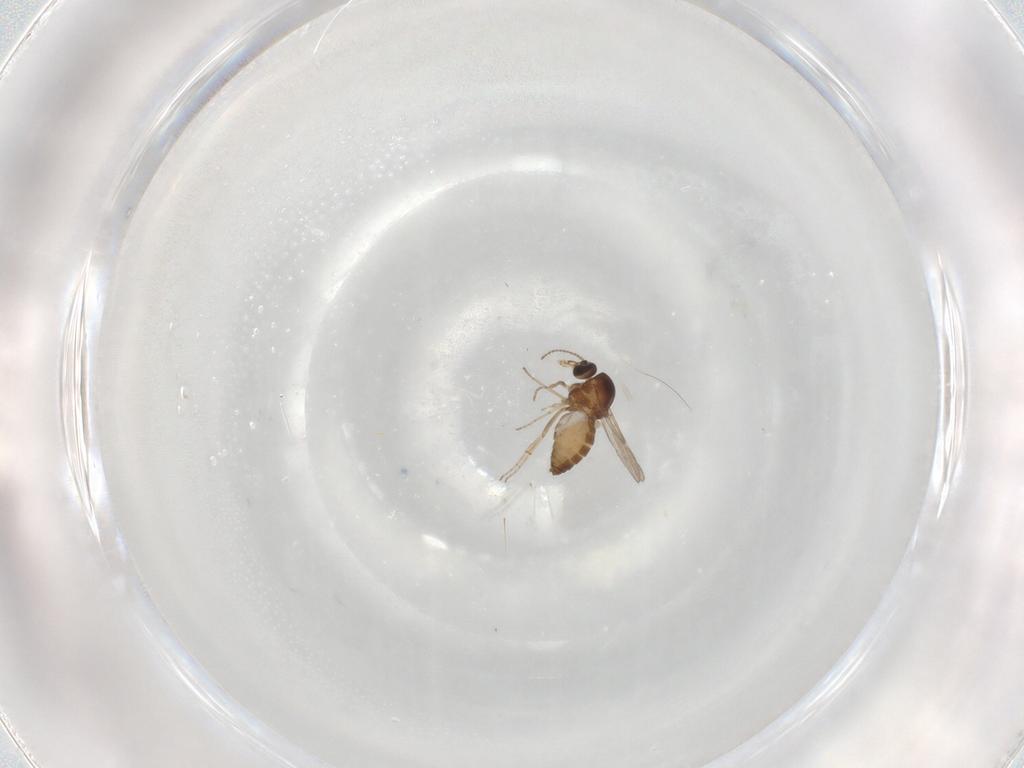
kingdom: Animalia
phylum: Arthropoda
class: Insecta
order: Diptera
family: Ceratopogonidae
